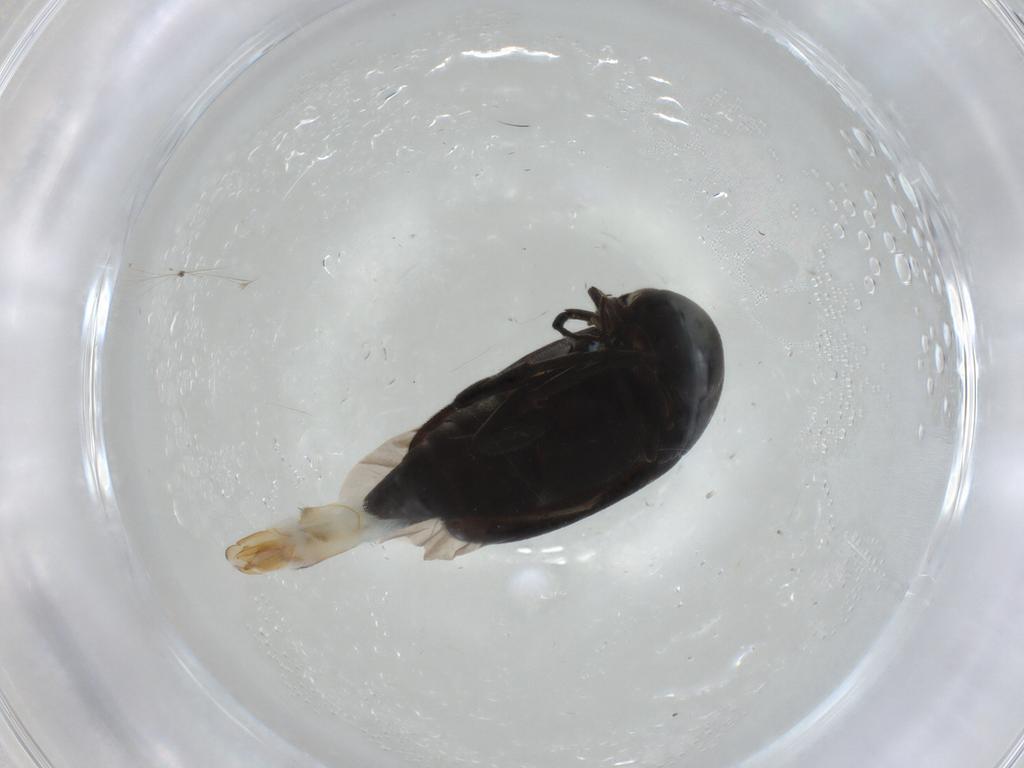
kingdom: Animalia
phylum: Arthropoda
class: Insecta
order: Coleoptera
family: Mordellidae
